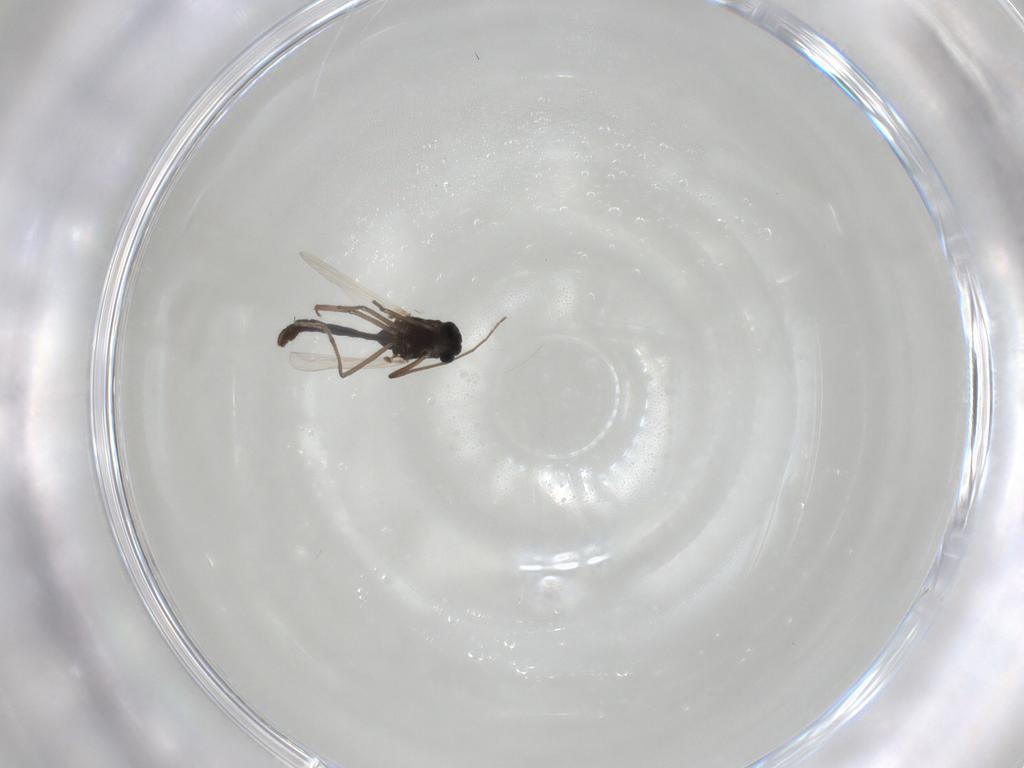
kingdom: Animalia
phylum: Arthropoda
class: Insecta
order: Diptera
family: Chironomidae
